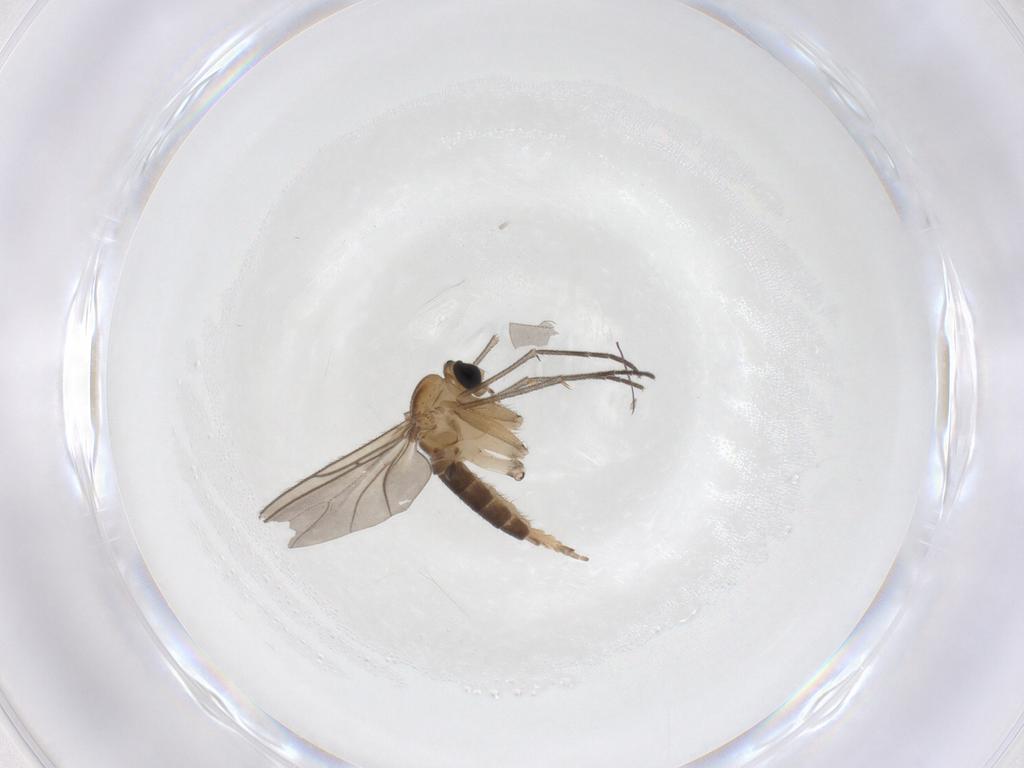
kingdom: Animalia
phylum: Arthropoda
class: Insecta
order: Diptera
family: Sciaridae
